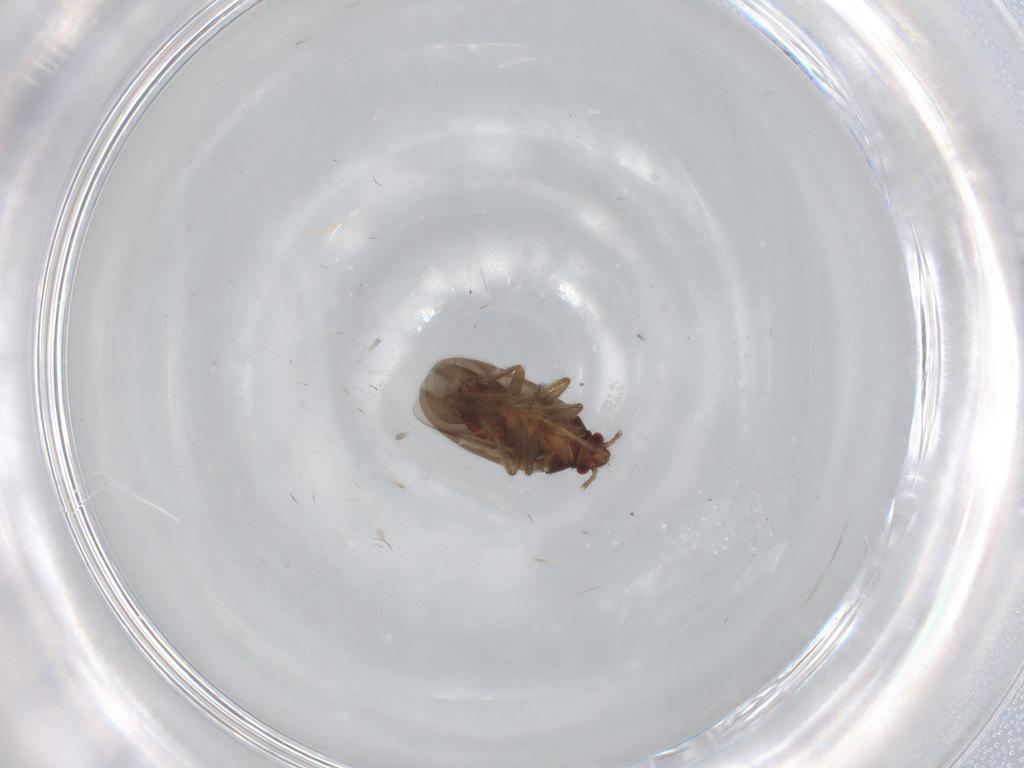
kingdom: Animalia
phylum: Arthropoda
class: Insecta
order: Hemiptera
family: Ceratocombidae
